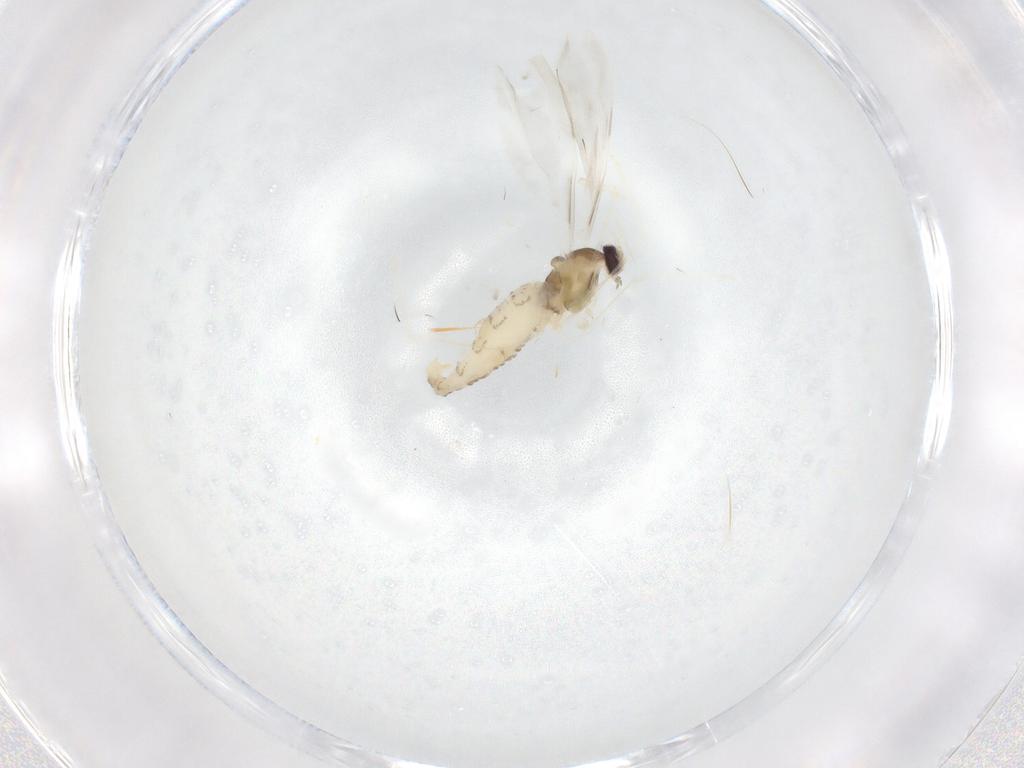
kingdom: Animalia
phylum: Arthropoda
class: Insecta
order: Diptera
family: Cecidomyiidae
